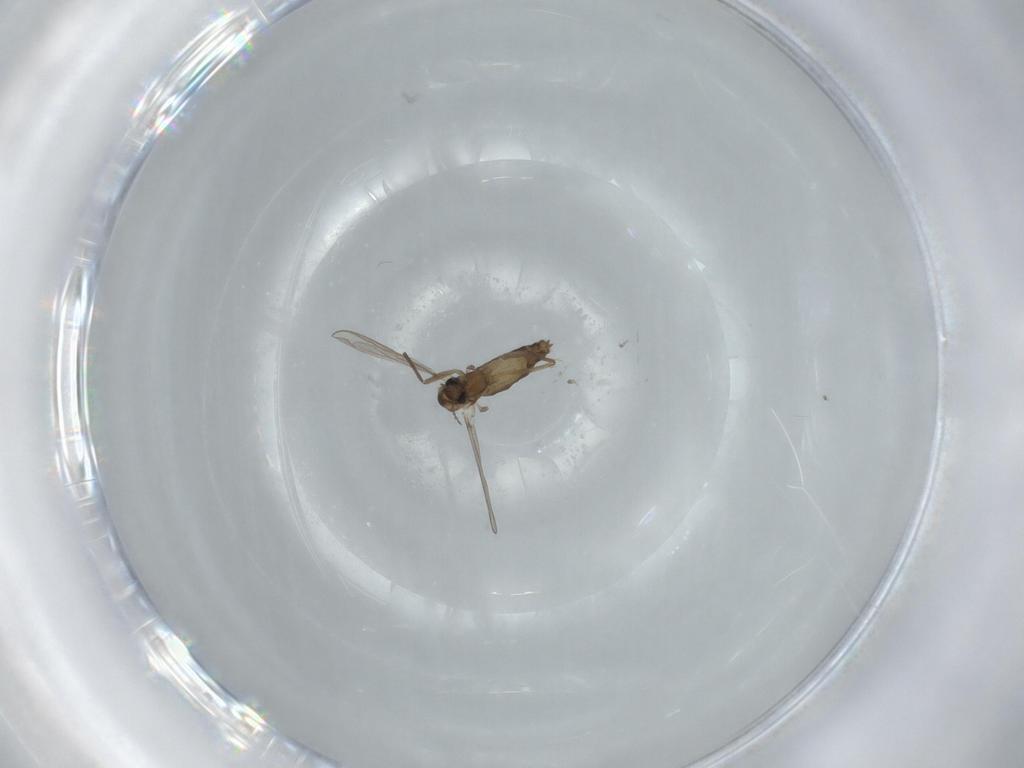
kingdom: Animalia
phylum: Arthropoda
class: Insecta
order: Diptera
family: Chironomidae
